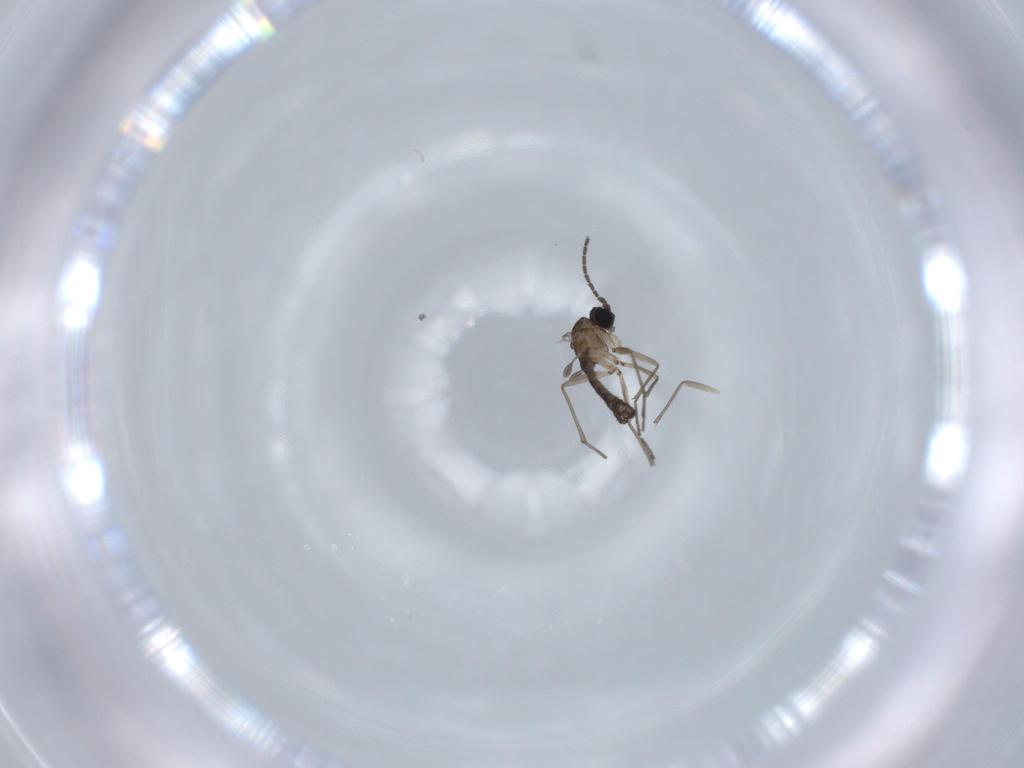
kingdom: Animalia
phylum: Arthropoda
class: Insecta
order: Diptera
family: Sciaridae
